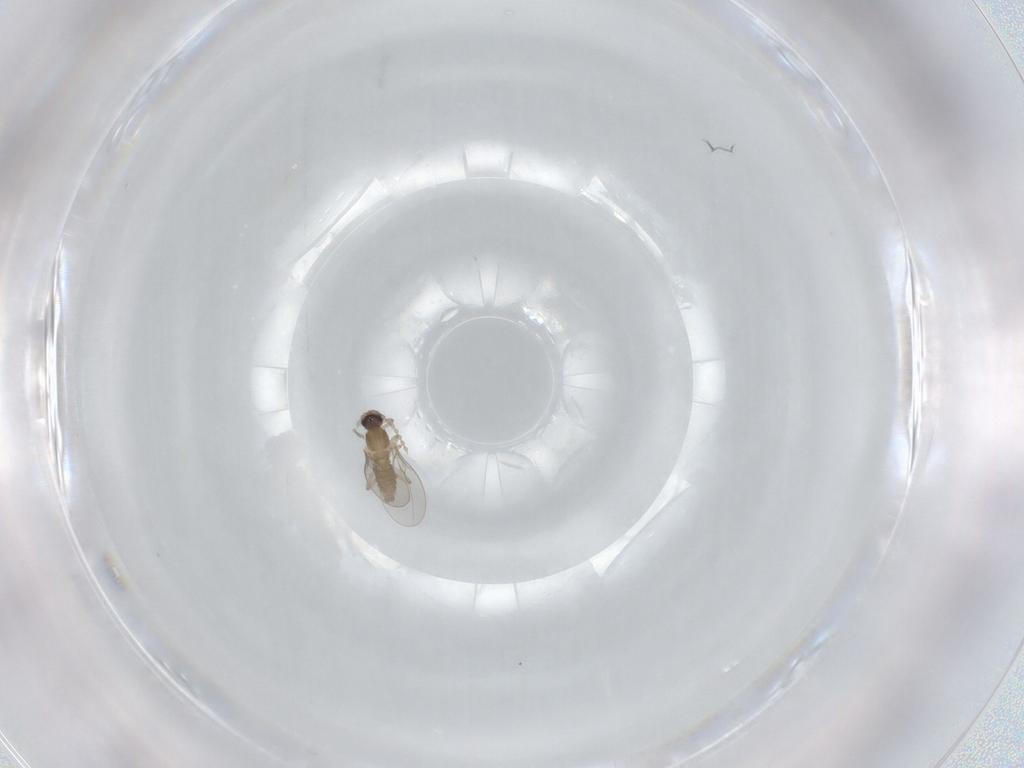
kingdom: Animalia
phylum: Arthropoda
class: Insecta
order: Diptera
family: Cecidomyiidae
